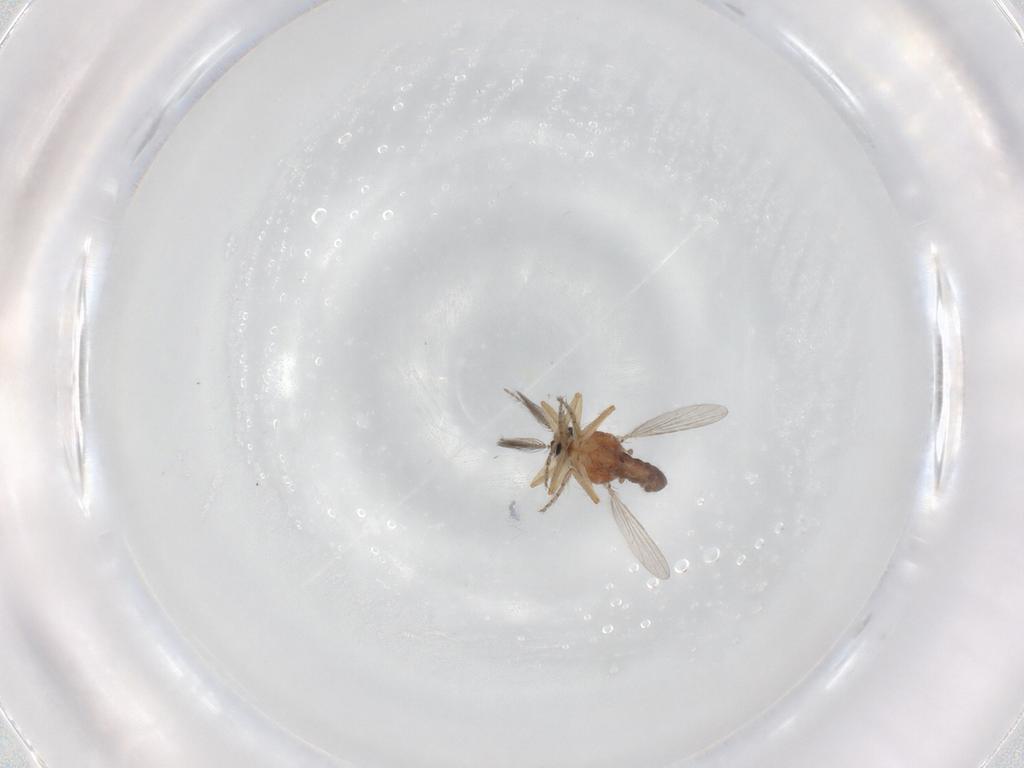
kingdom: Animalia
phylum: Arthropoda
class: Insecta
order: Diptera
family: Ceratopogonidae
